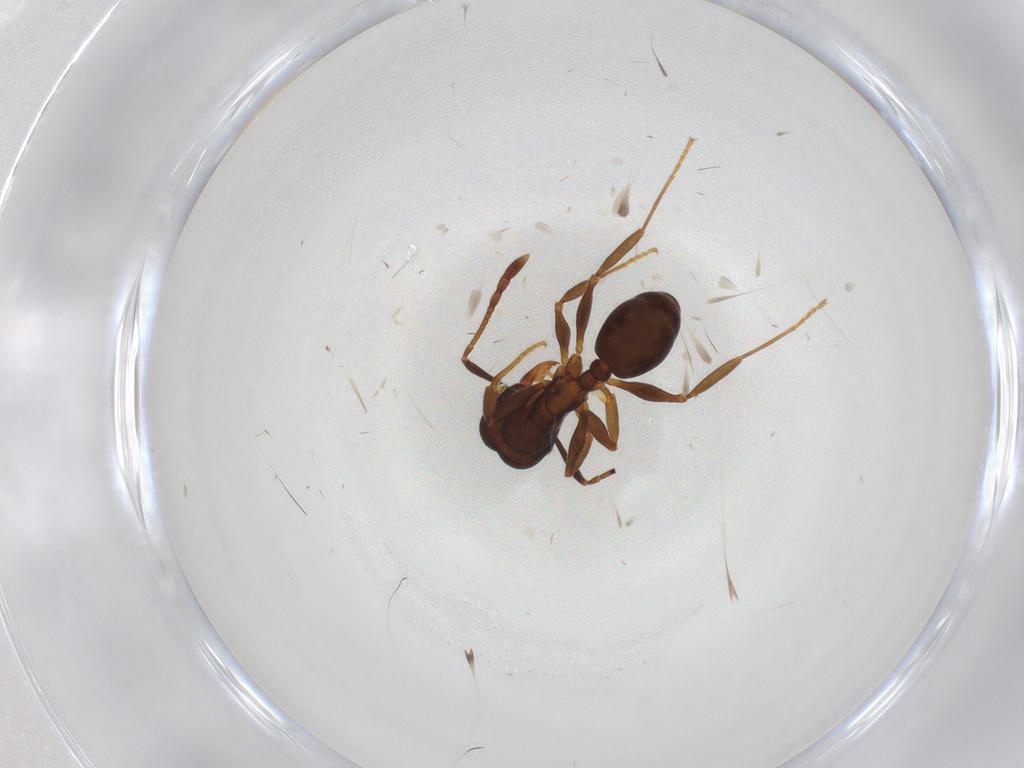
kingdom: Animalia
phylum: Arthropoda
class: Insecta
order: Hymenoptera
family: Formicidae
